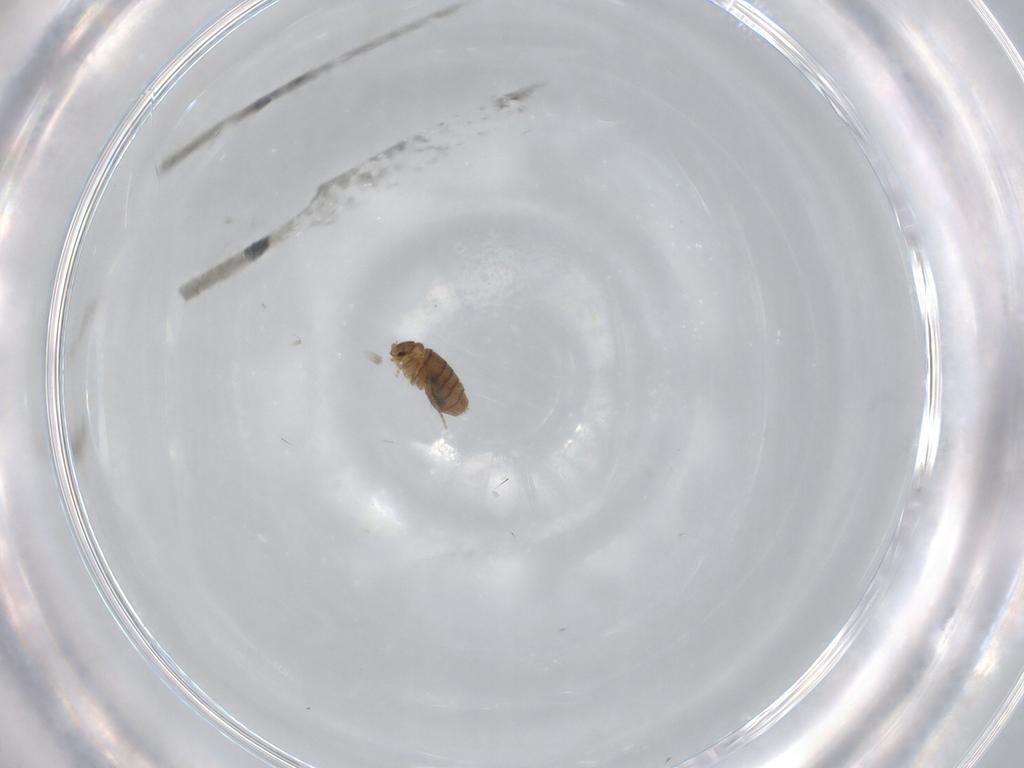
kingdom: Animalia
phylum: Arthropoda
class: Insecta
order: Diptera
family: Phoridae
